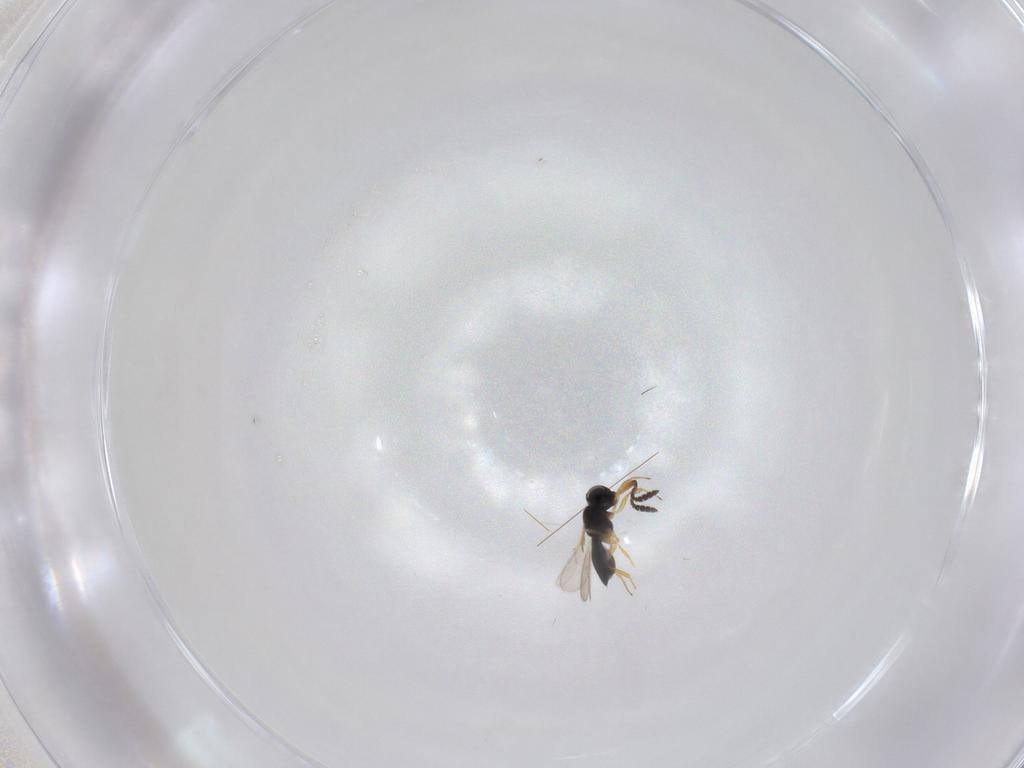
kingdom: Animalia
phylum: Arthropoda
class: Insecta
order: Hymenoptera
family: Scelionidae
